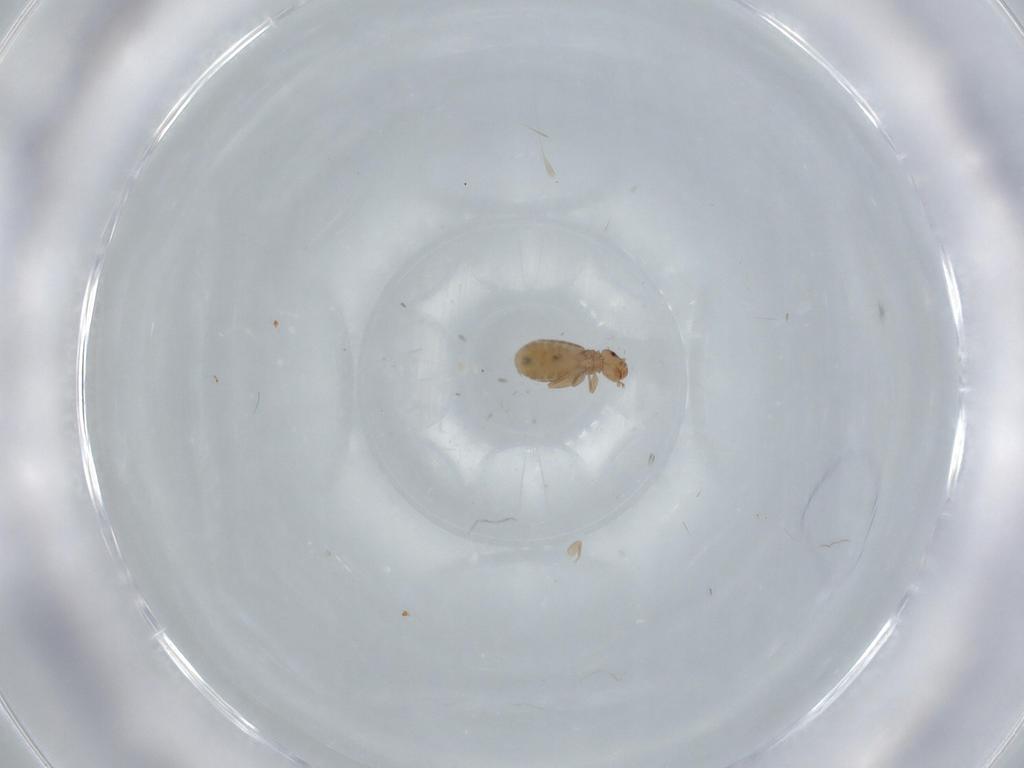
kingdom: Animalia
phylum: Arthropoda
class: Insecta
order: Psocodea
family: Liposcelididae
